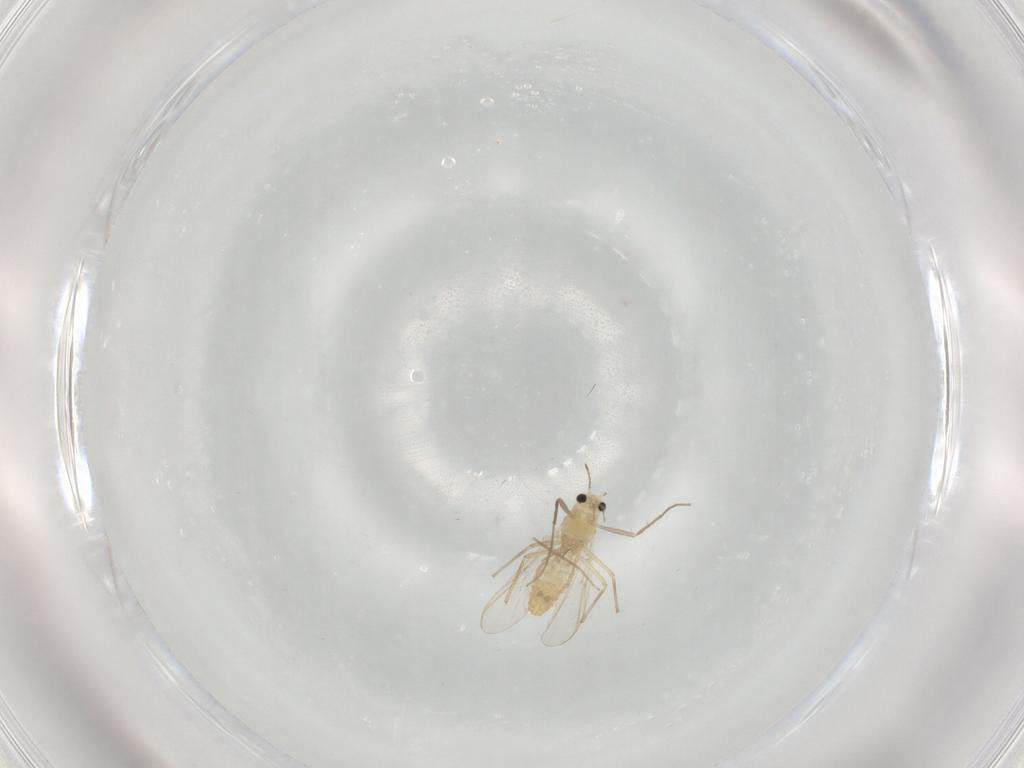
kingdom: Animalia
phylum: Arthropoda
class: Insecta
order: Diptera
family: Chironomidae
